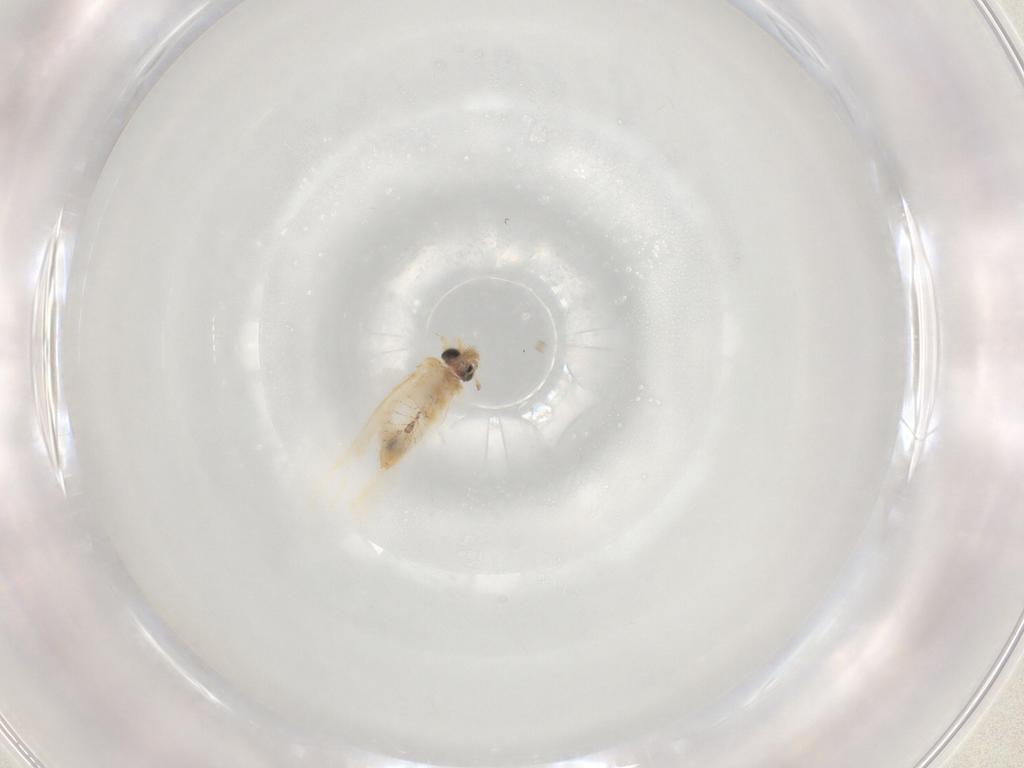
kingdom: Animalia
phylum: Arthropoda
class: Insecta
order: Lepidoptera
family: Nepticulidae
